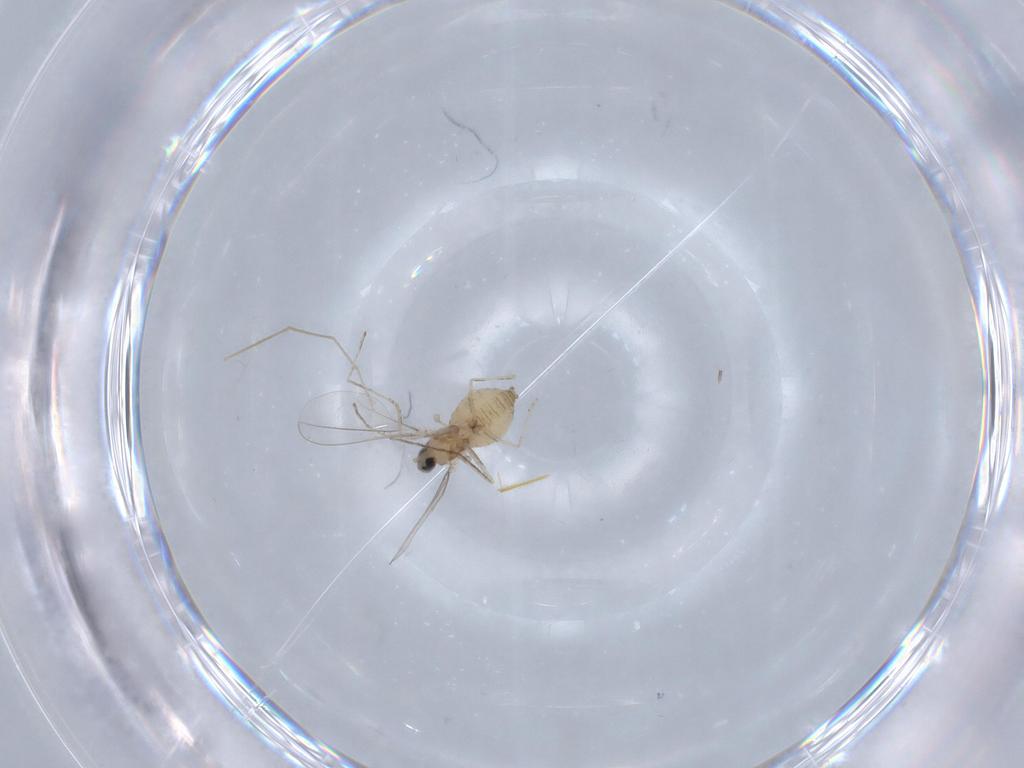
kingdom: Animalia
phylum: Arthropoda
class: Insecta
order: Diptera
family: Cecidomyiidae
